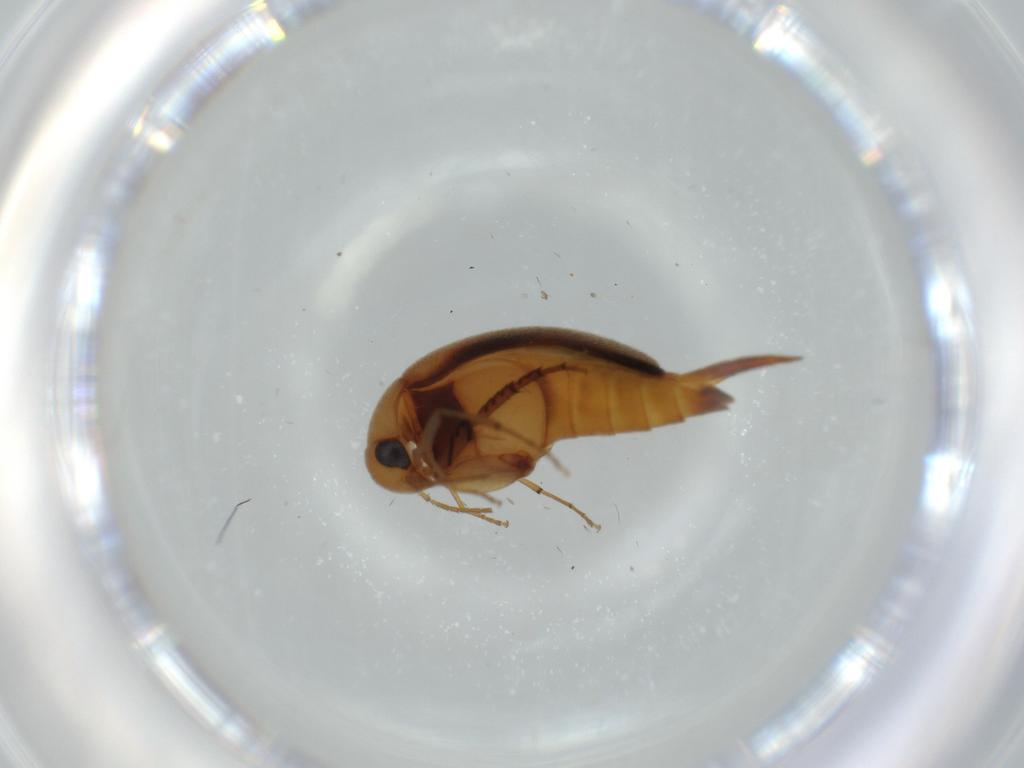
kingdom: Animalia
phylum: Arthropoda
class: Insecta
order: Coleoptera
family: Mordellidae
